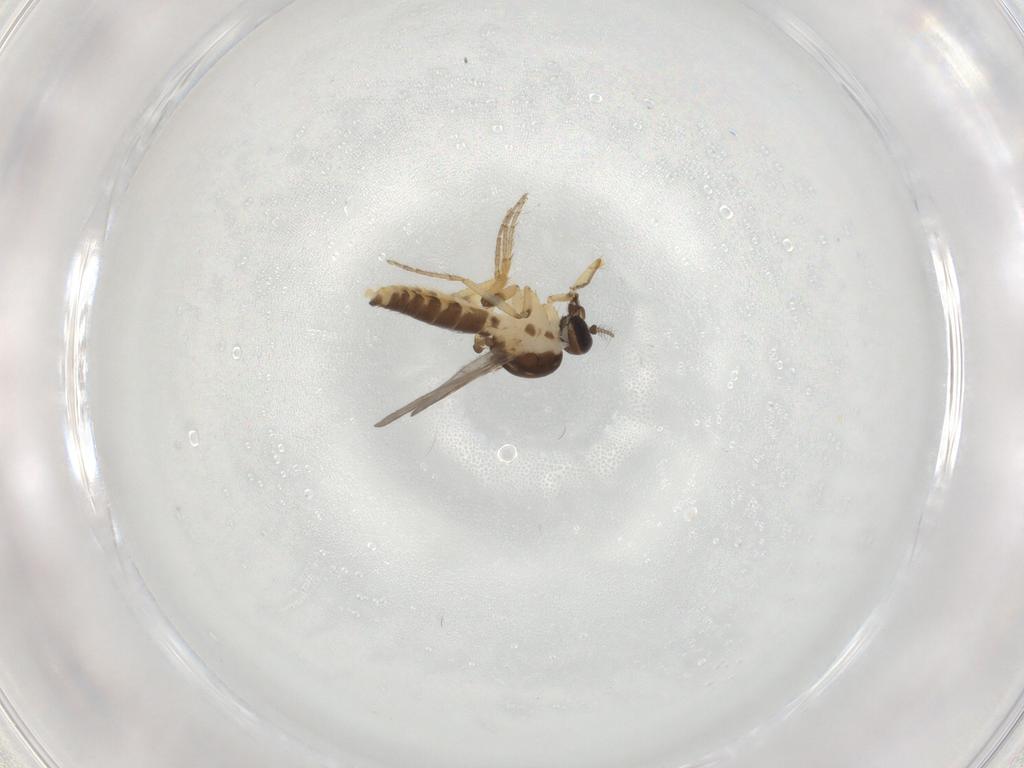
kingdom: Animalia
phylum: Arthropoda
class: Insecta
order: Diptera
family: Ceratopogonidae
